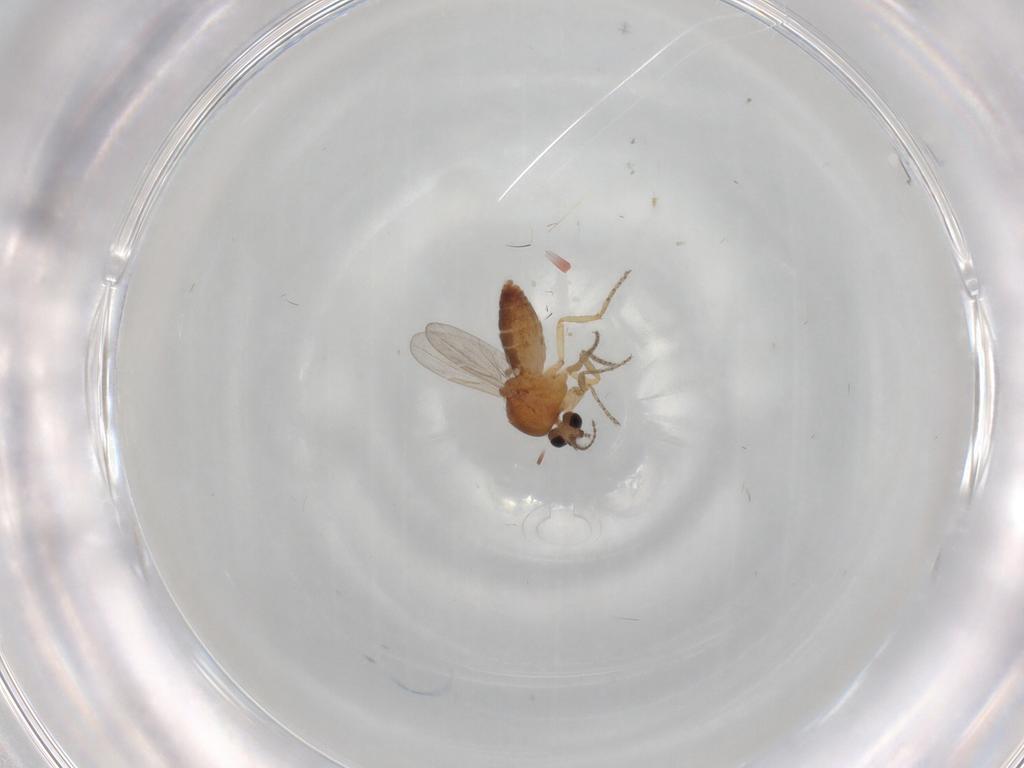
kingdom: Animalia
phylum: Arthropoda
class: Insecta
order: Diptera
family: Ceratopogonidae
